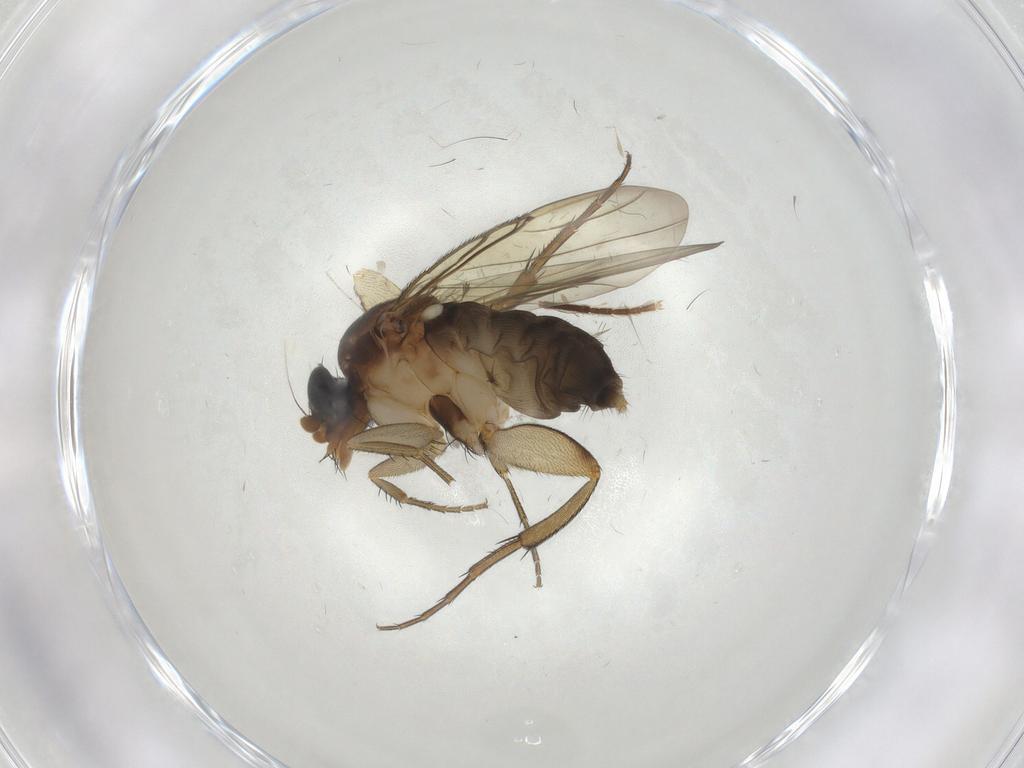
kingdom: Animalia
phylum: Arthropoda
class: Insecta
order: Diptera
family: Phoridae
